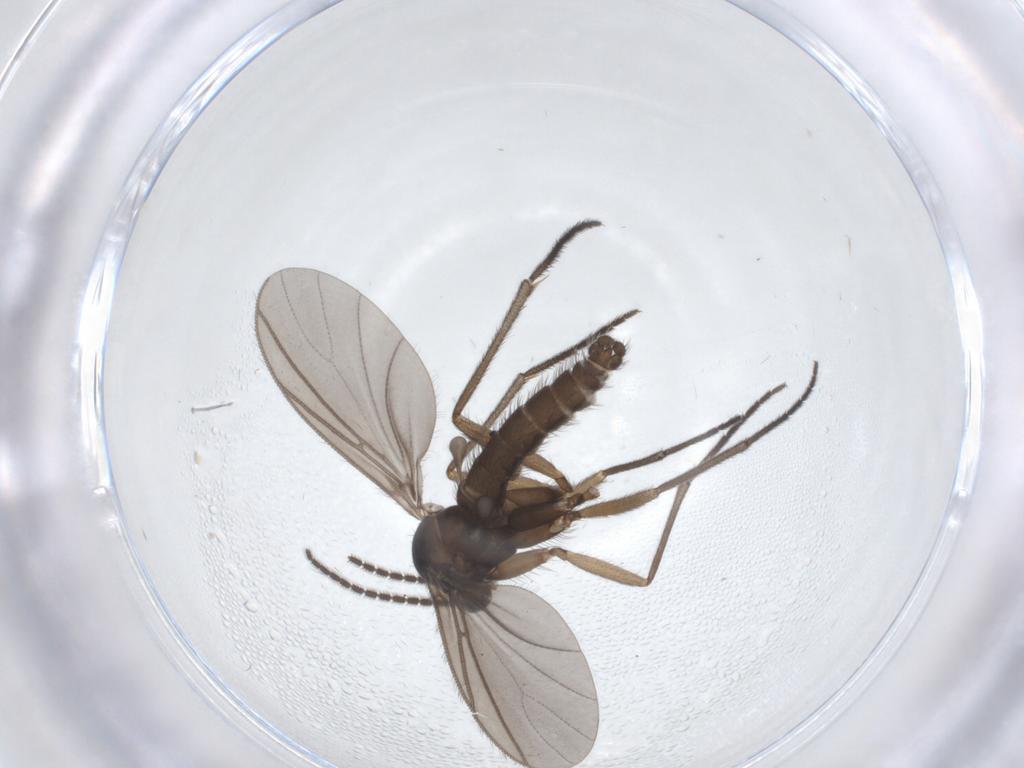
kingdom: Animalia
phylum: Arthropoda
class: Insecta
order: Diptera
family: Sciaridae
